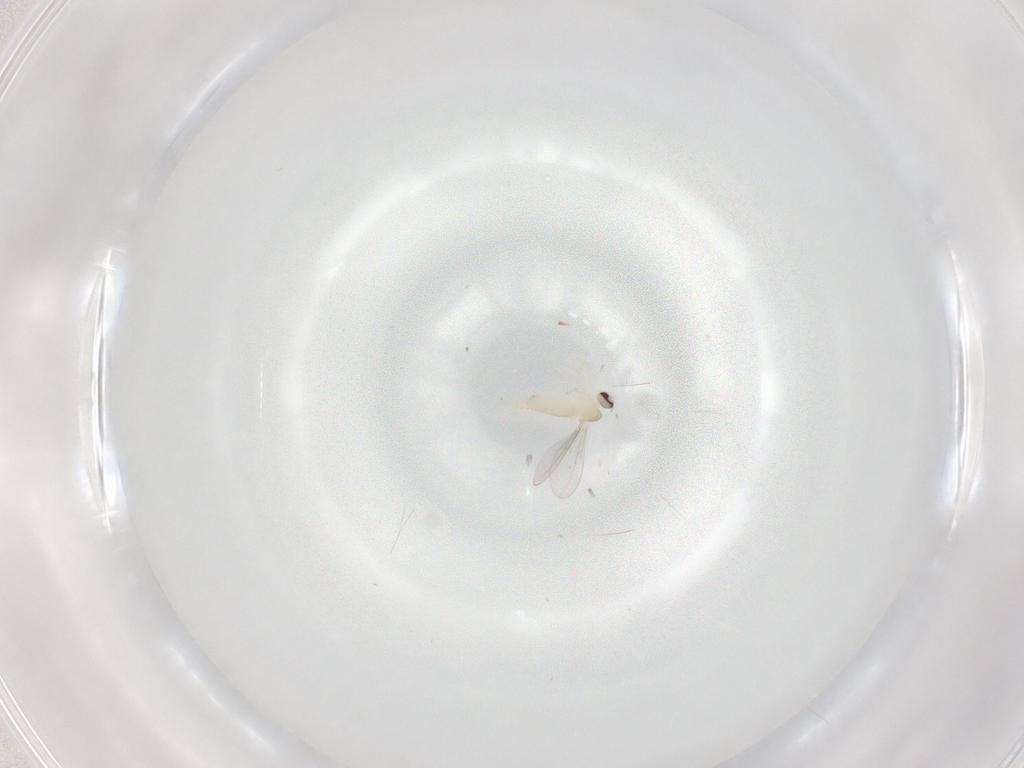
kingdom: Animalia
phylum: Arthropoda
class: Insecta
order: Diptera
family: Cecidomyiidae
